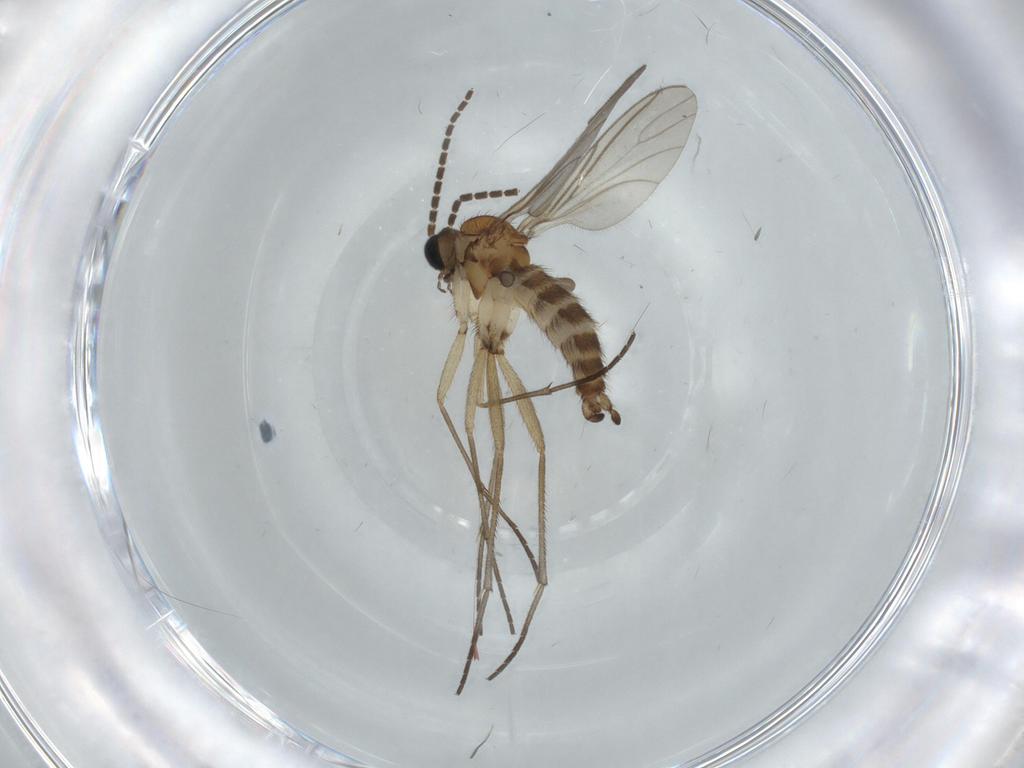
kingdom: Animalia
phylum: Arthropoda
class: Insecta
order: Diptera
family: Sciaridae
